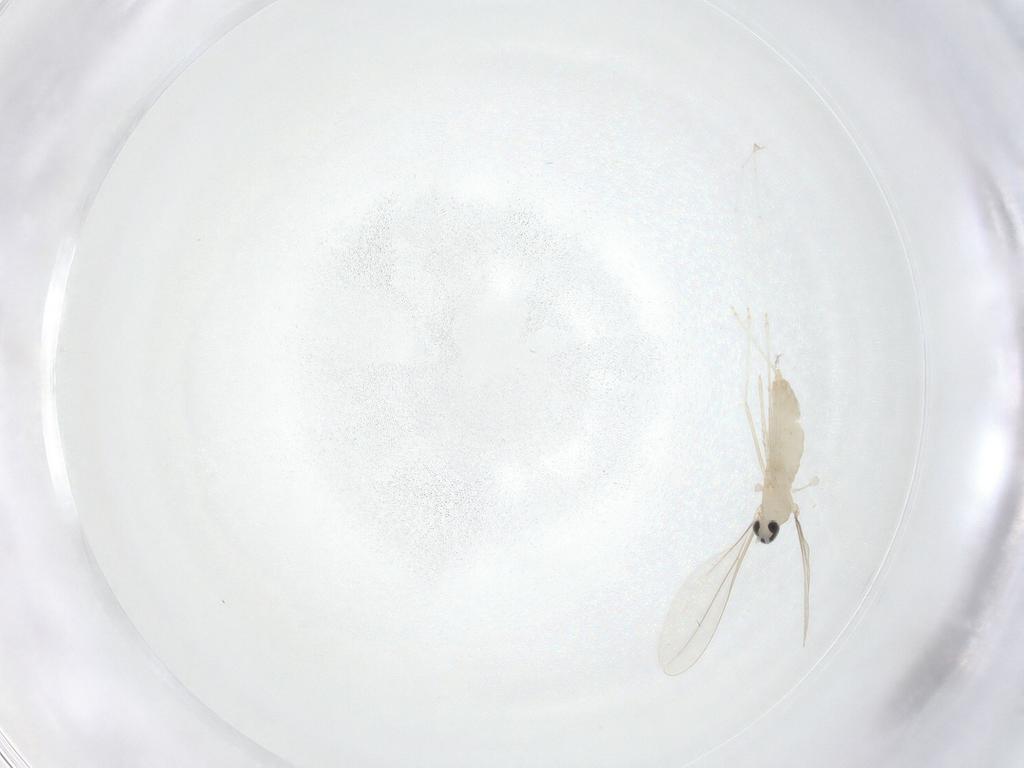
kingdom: Animalia
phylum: Arthropoda
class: Insecta
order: Diptera
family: Cecidomyiidae
